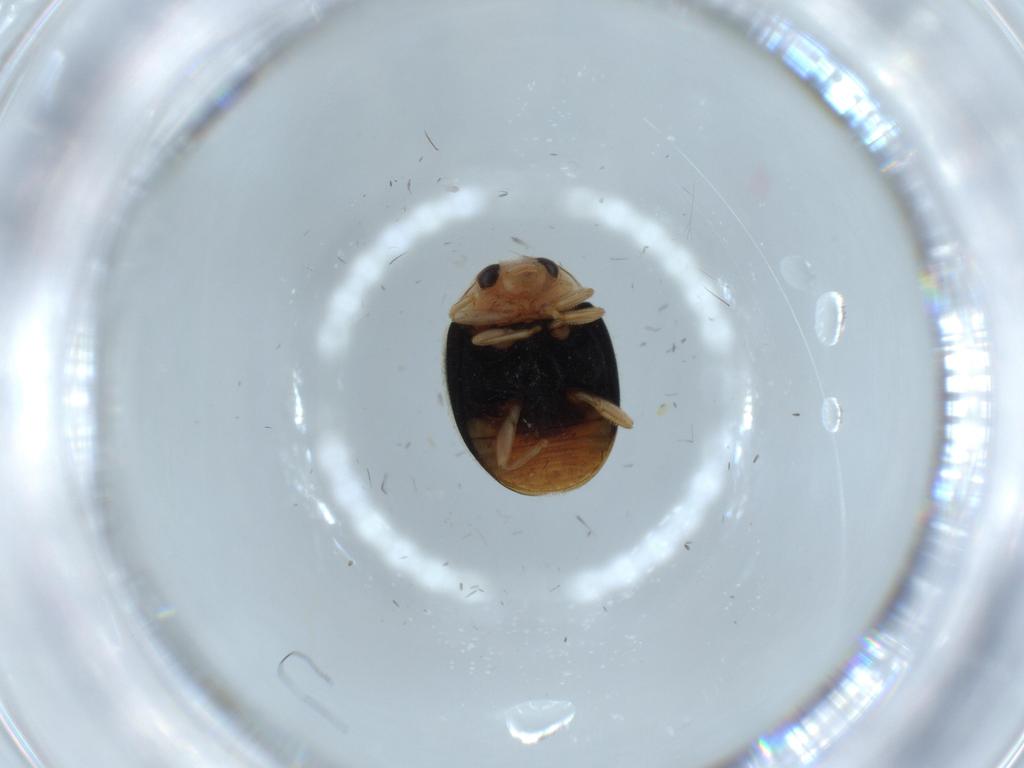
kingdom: Animalia
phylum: Arthropoda
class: Insecta
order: Coleoptera
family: Coccinellidae
